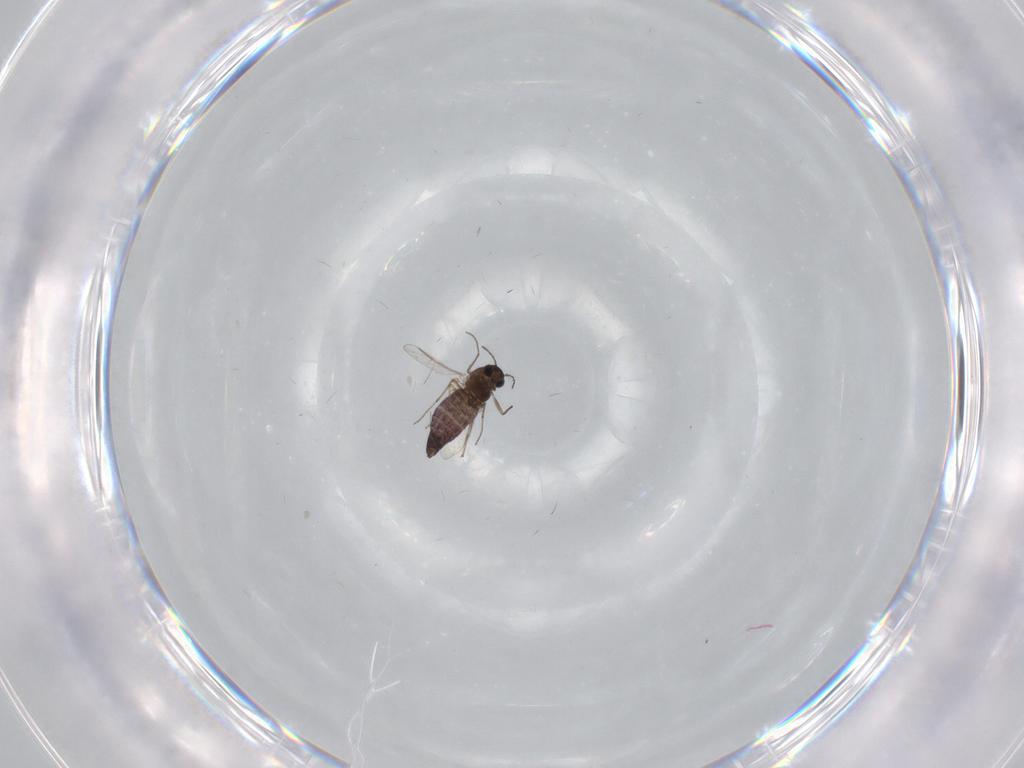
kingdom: Animalia
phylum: Arthropoda
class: Insecta
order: Diptera
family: Chironomidae
